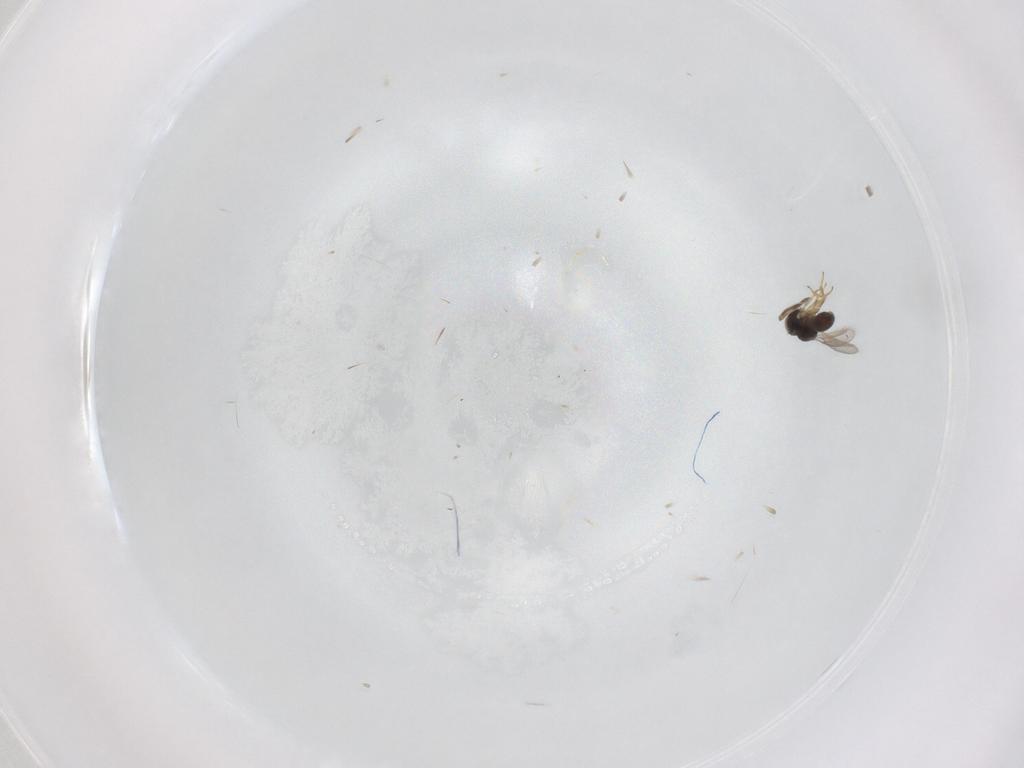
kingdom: Animalia
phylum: Arthropoda
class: Insecta
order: Hymenoptera
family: Scelionidae
